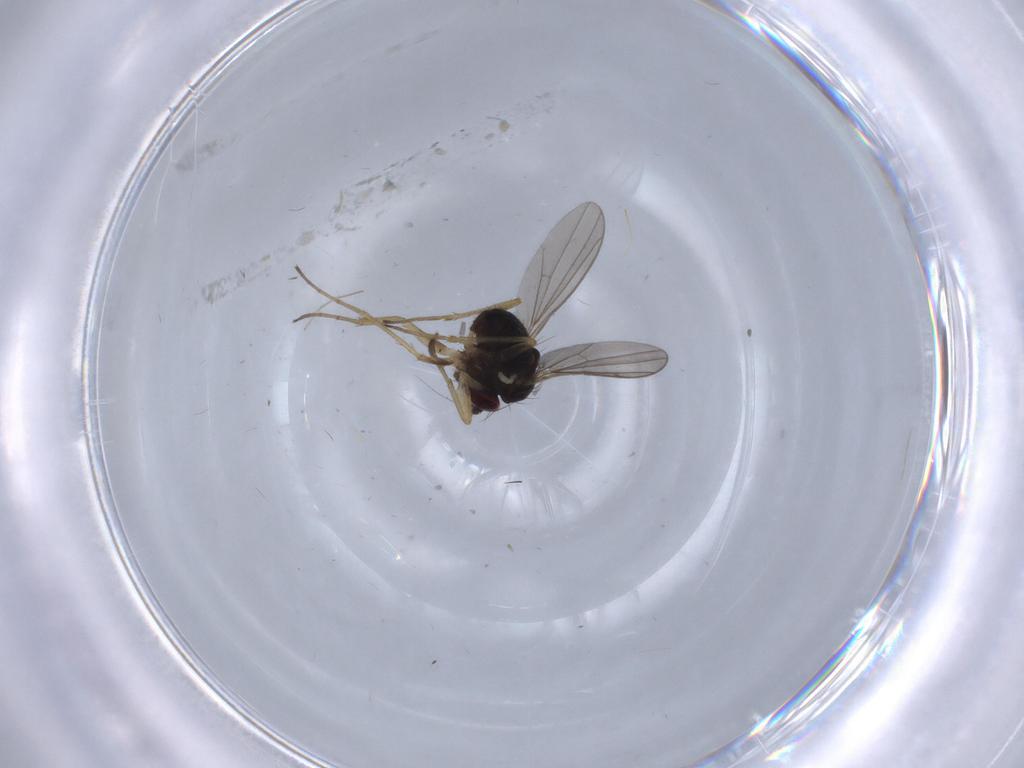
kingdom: Animalia
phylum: Arthropoda
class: Insecta
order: Diptera
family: Dolichopodidae
